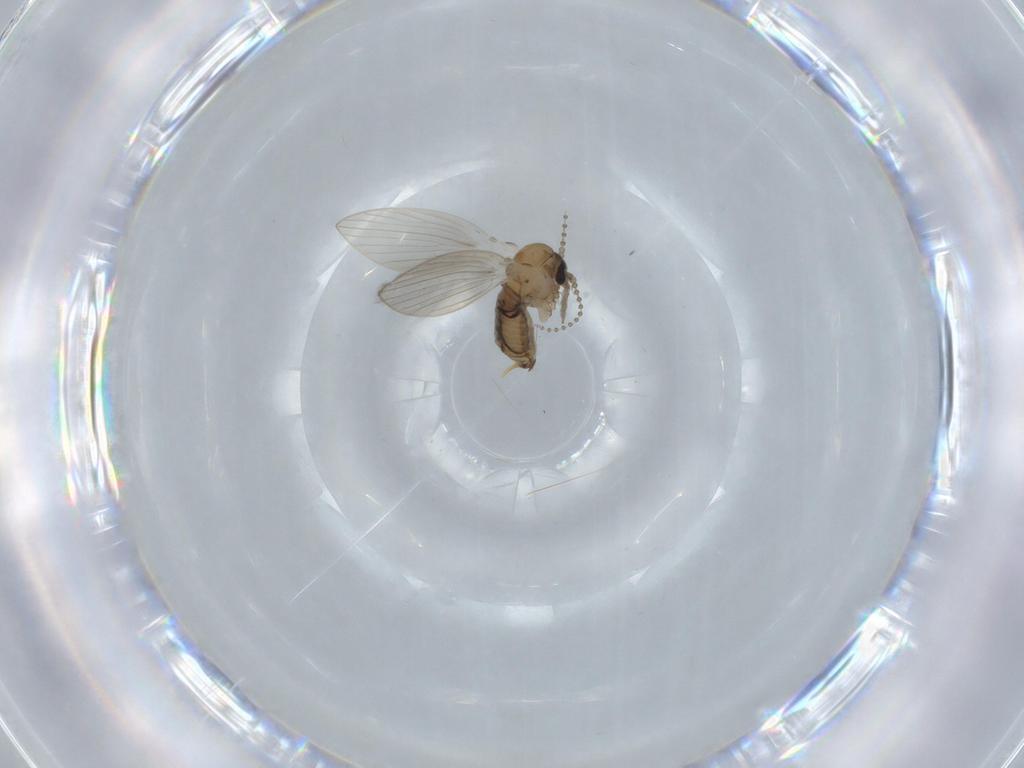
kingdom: Animalia
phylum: Arthropoda
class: Insecta
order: Diptera
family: Psychodidae
